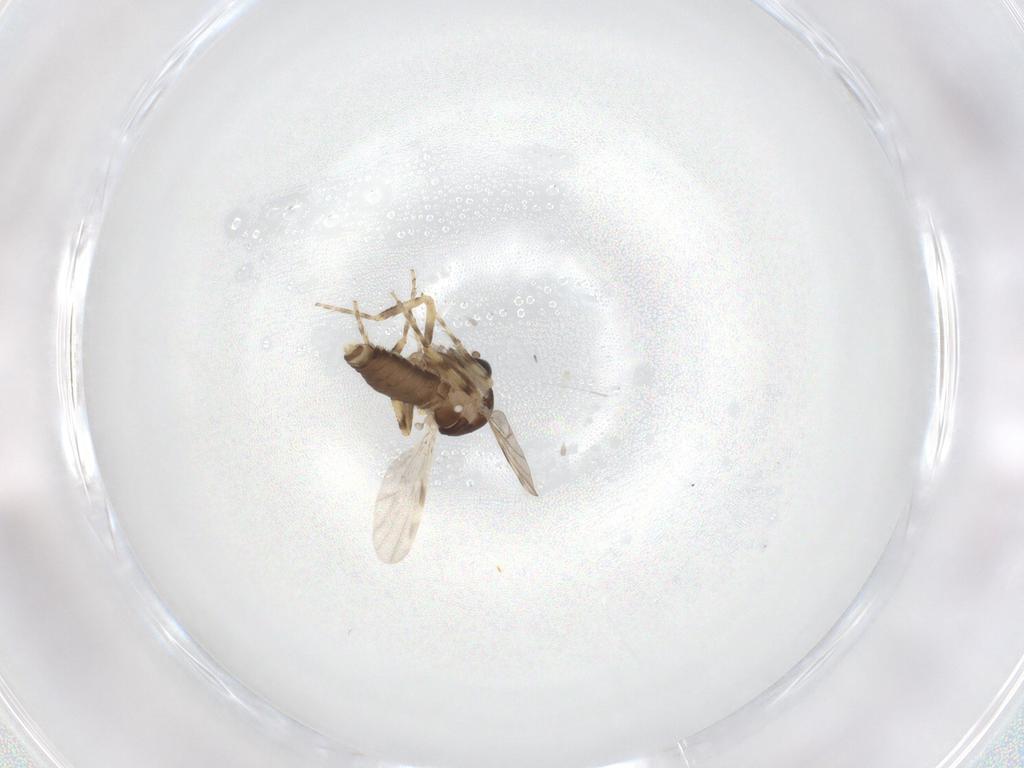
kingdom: Animalia
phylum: Arthropoda
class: Insecta
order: Diptera
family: Ceratopogonidae
